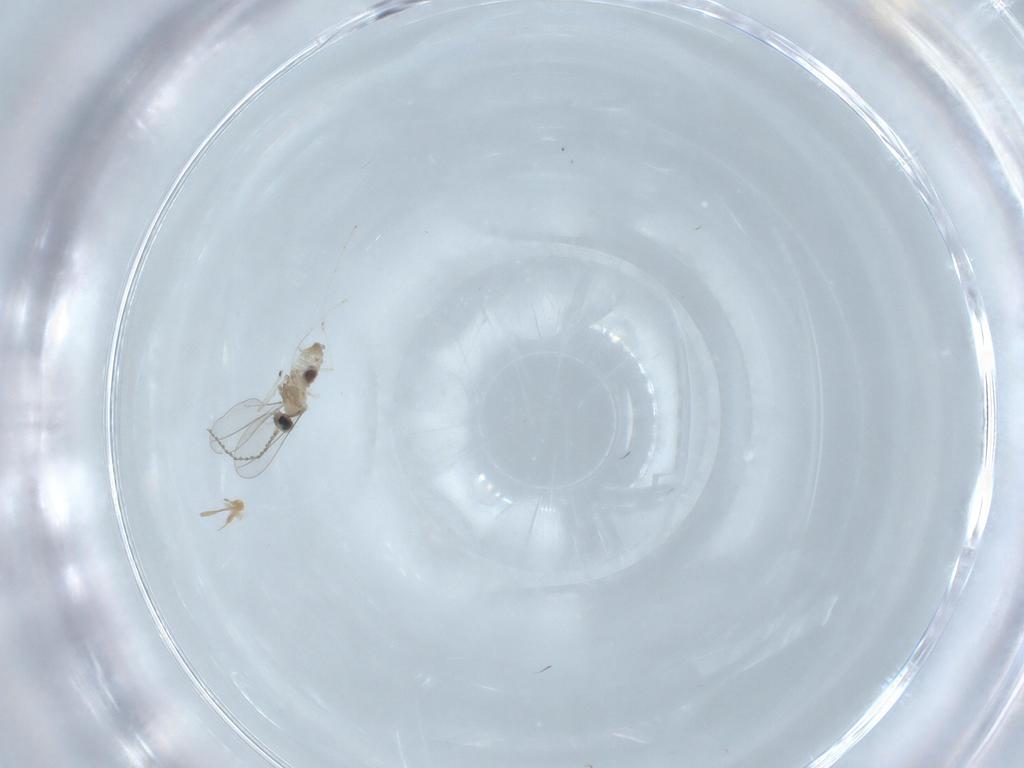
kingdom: Animalia
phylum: Arthropoda
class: Insecta
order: Diptera
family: Chironomidae
